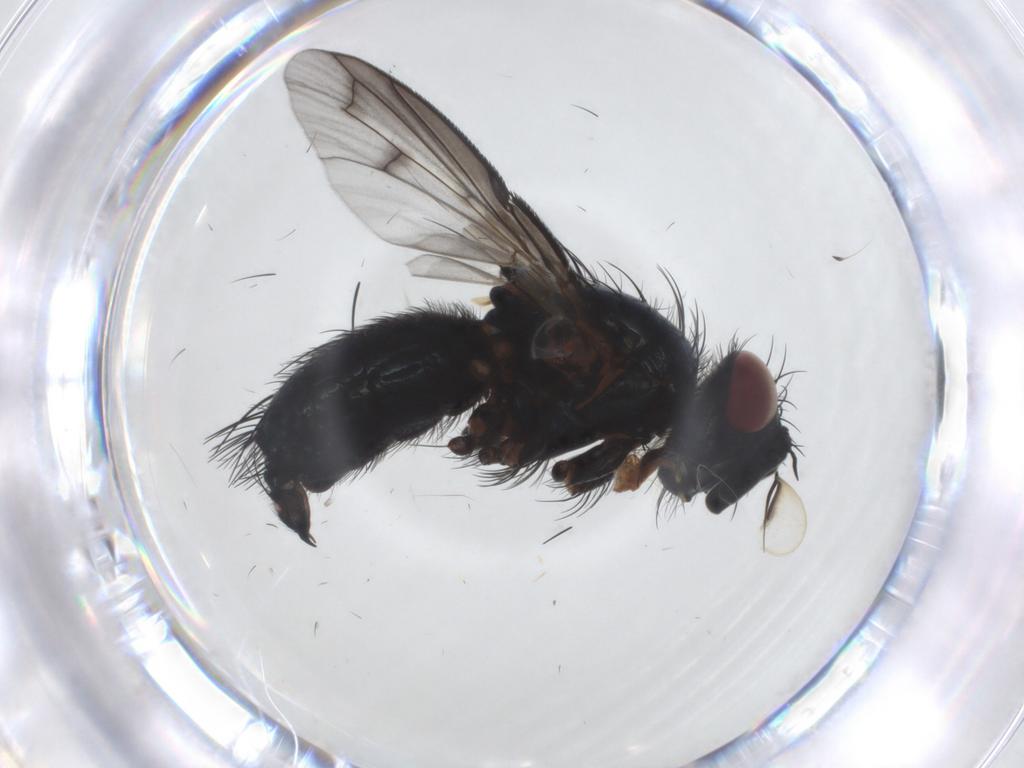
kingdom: Animalia
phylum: Arthropoda
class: Insecta
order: Diptera
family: Tachinidae
